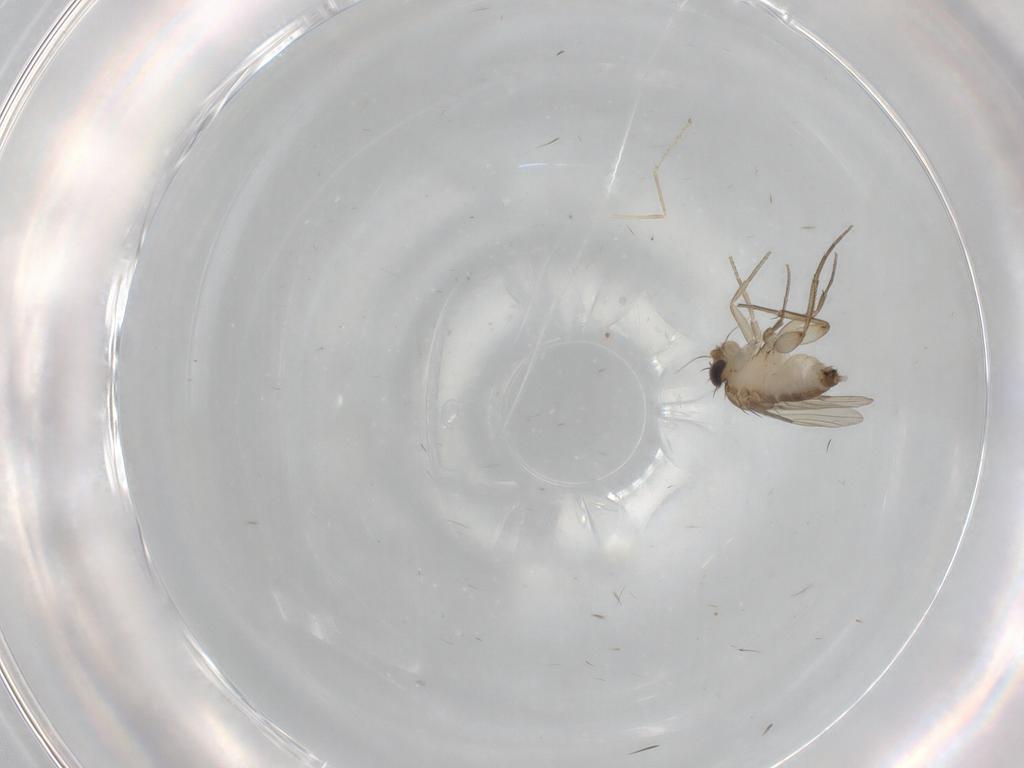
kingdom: Animalia
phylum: Arthropoda
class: Insecta
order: Diptera
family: Phoridae
